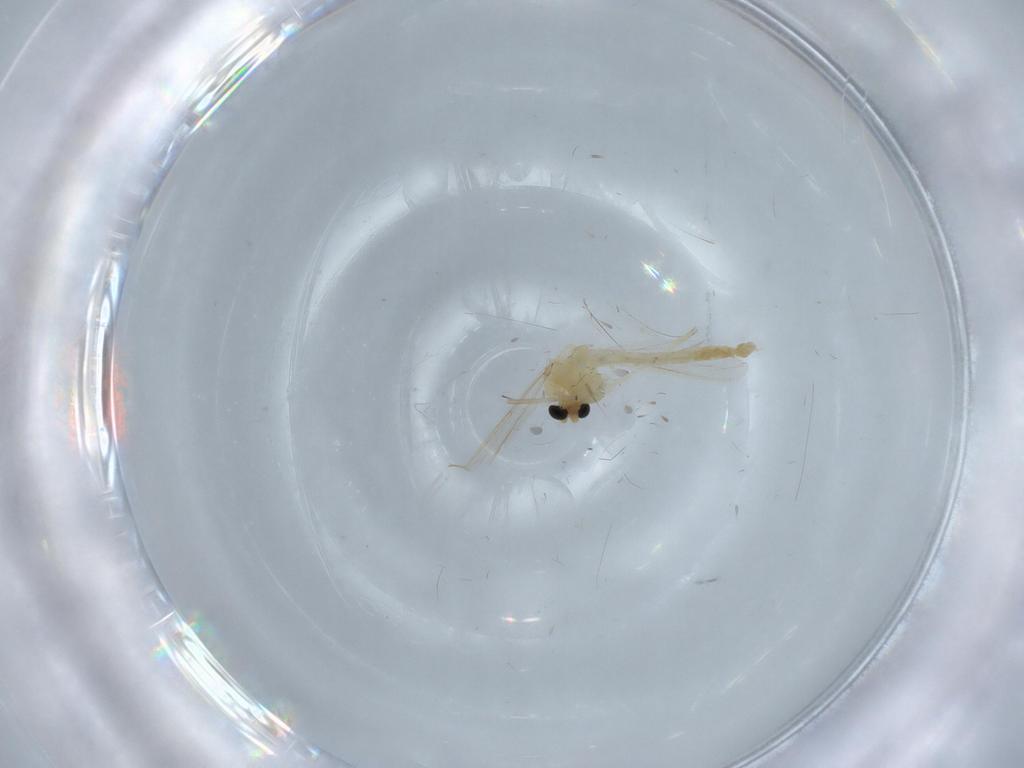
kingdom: Animalia
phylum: Arthropoda
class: Insecta
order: Diptera
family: Chironomidae
